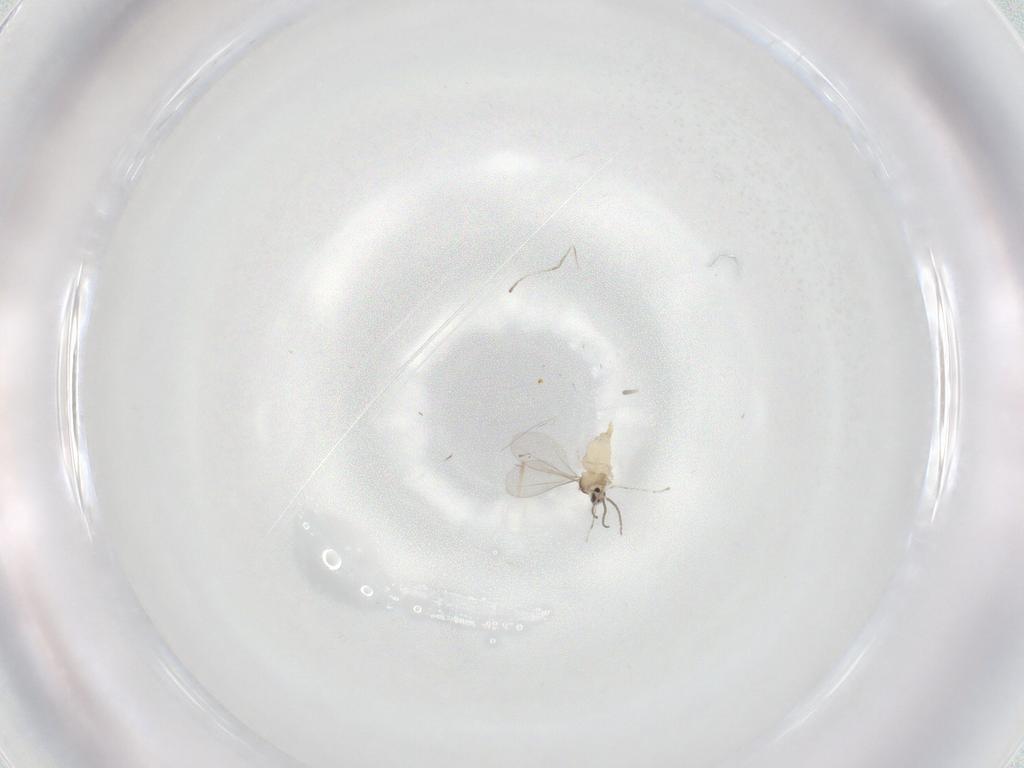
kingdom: Animalia
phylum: Arthropoda
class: Insecta
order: Diptera
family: Cecidomyiidae
